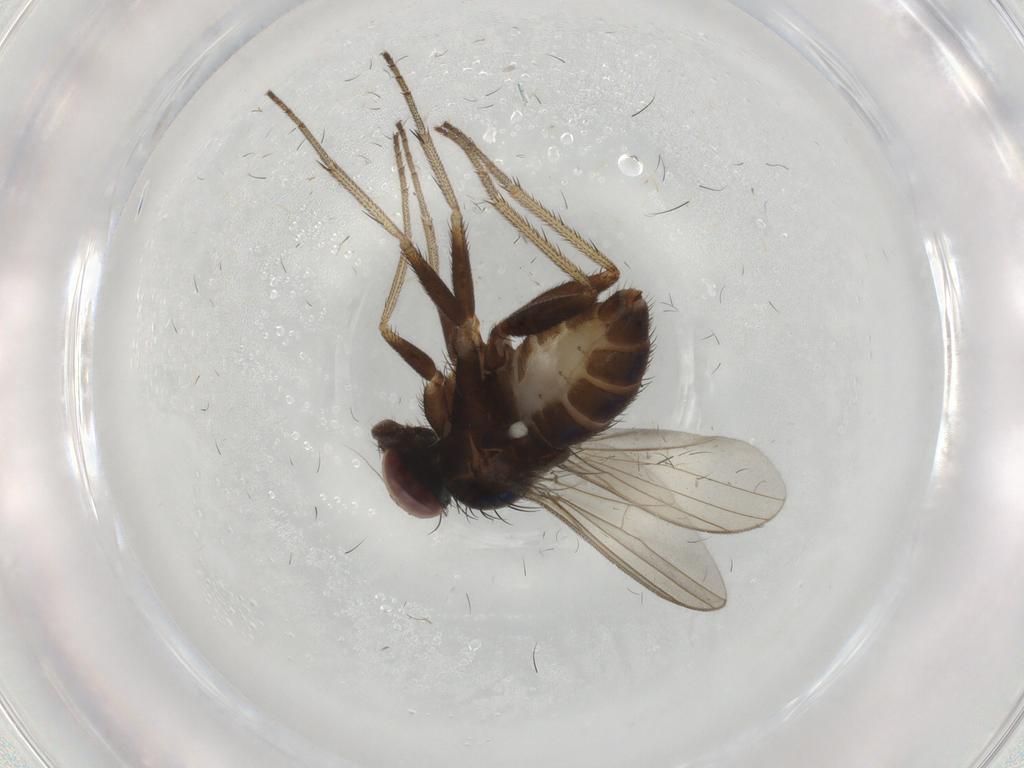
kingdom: Animalia
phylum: Arthropoda
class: Insecta
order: Diptera
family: Dolichopodidae
